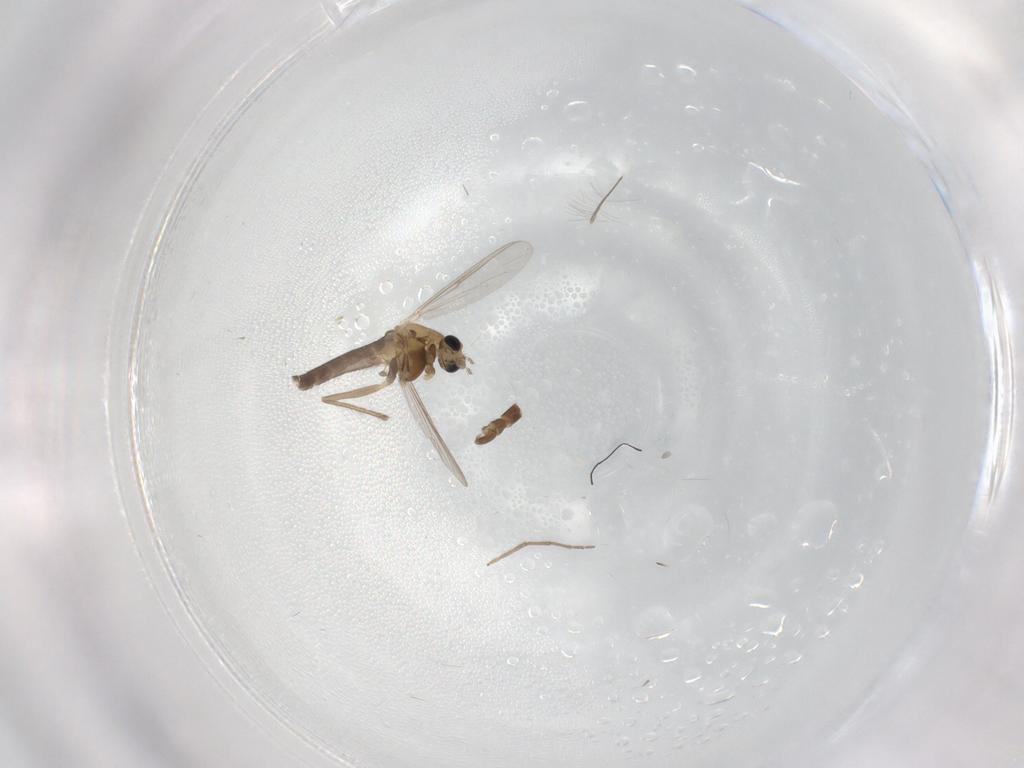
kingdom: Animalia
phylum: Arthropoda
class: Insecta
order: Diptera
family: Chironomidae
